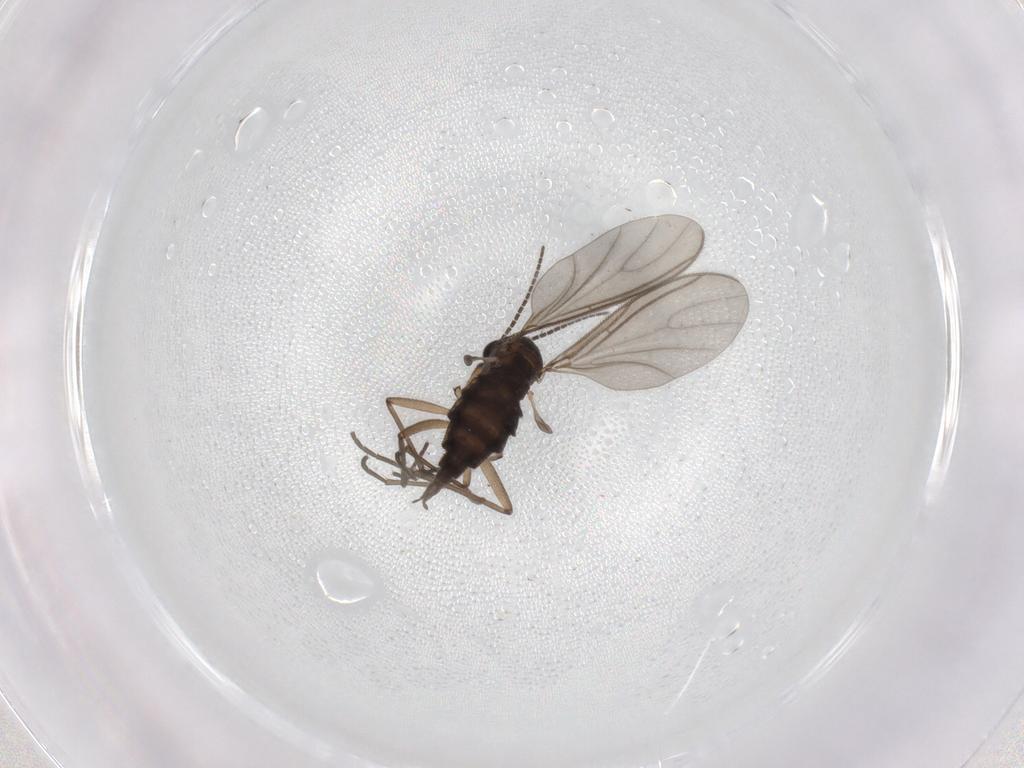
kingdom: Animalia
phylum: Arthropoda
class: Insecta
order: Diptera
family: Sciaridae
